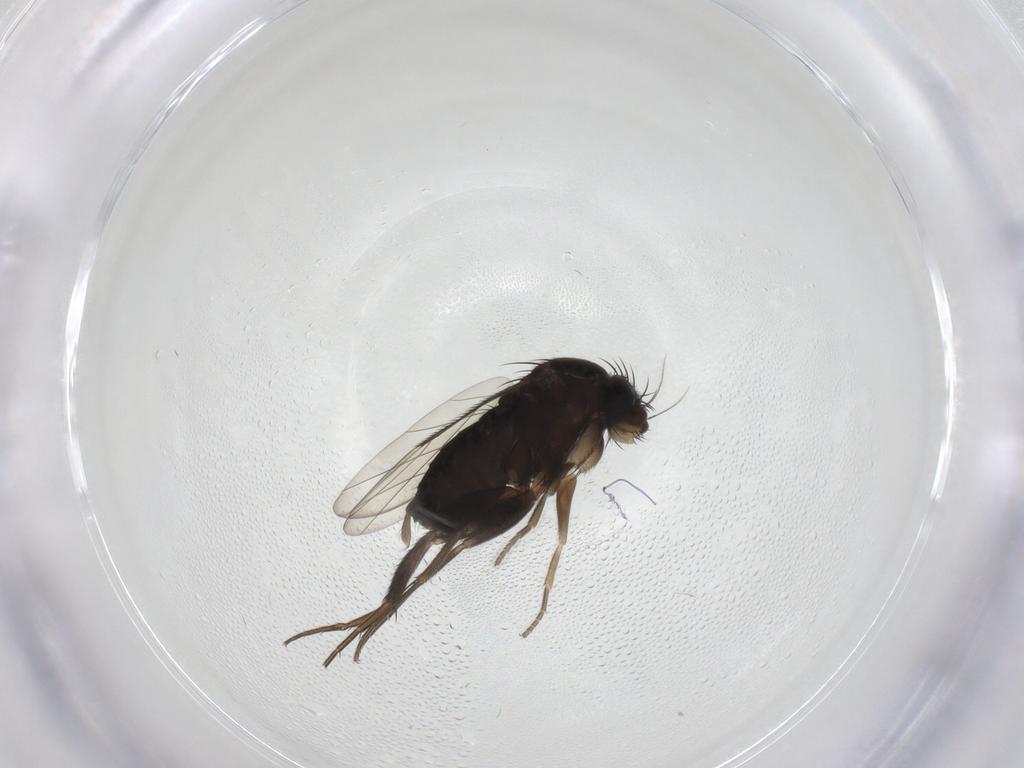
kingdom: Animalia
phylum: Arthropoda
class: Insecta
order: Diptera
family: Phoridae
